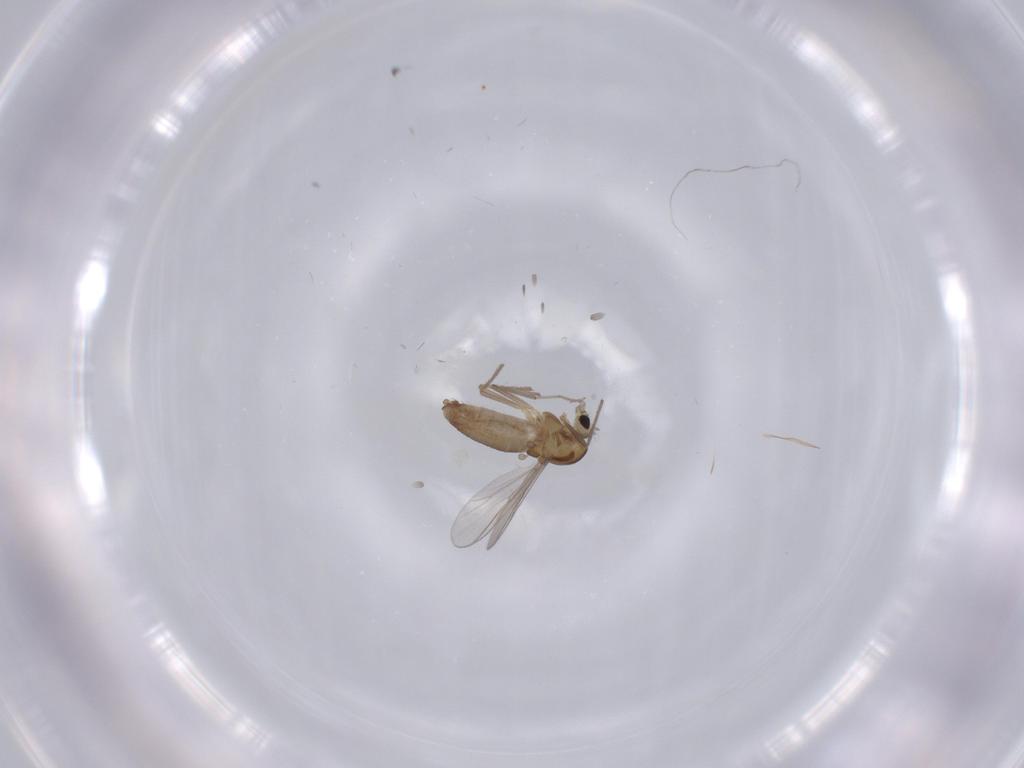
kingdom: Animalia
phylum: Arthropoda
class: Insecta
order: Diptera
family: Chironomidae
